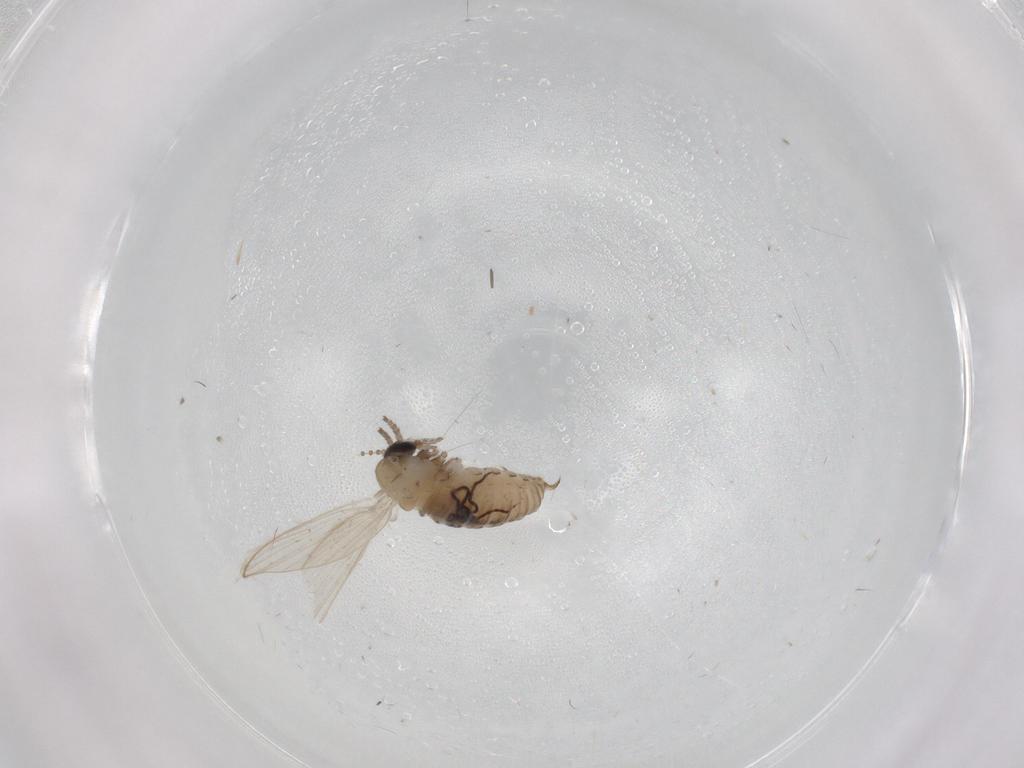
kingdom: Animalia
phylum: Arthropoda
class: Insecta
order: Diptera
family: Psychodidae
